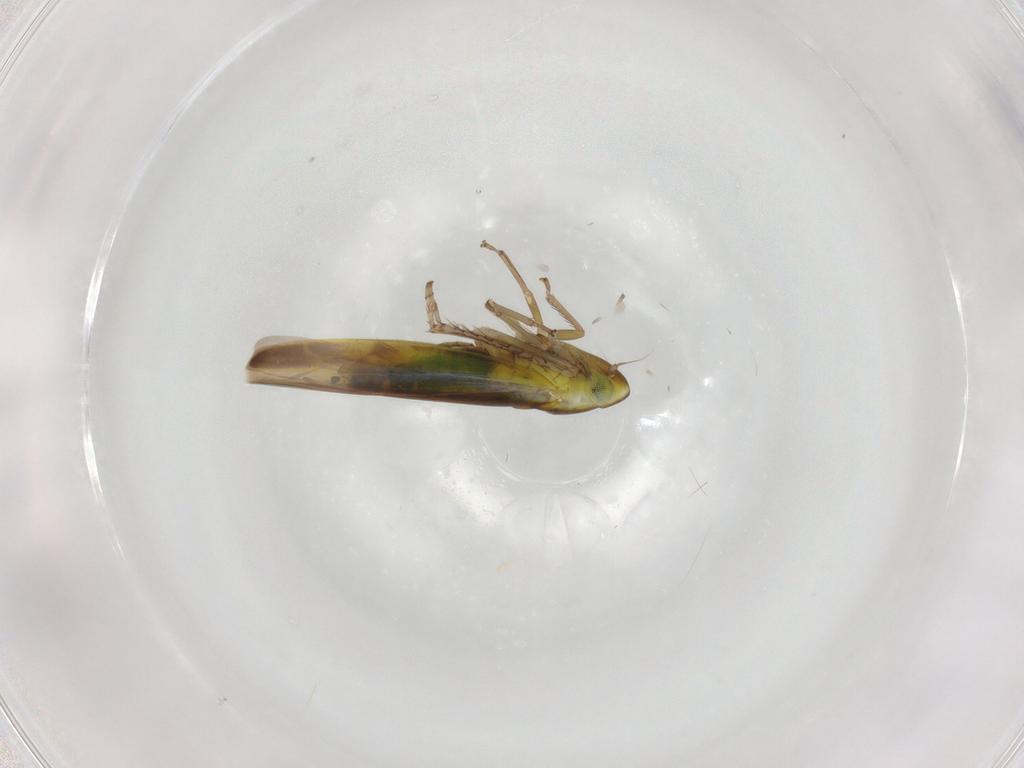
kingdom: Animalia
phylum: Arthropoda
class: Insecta
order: Hemiptera
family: Cicadellidae
